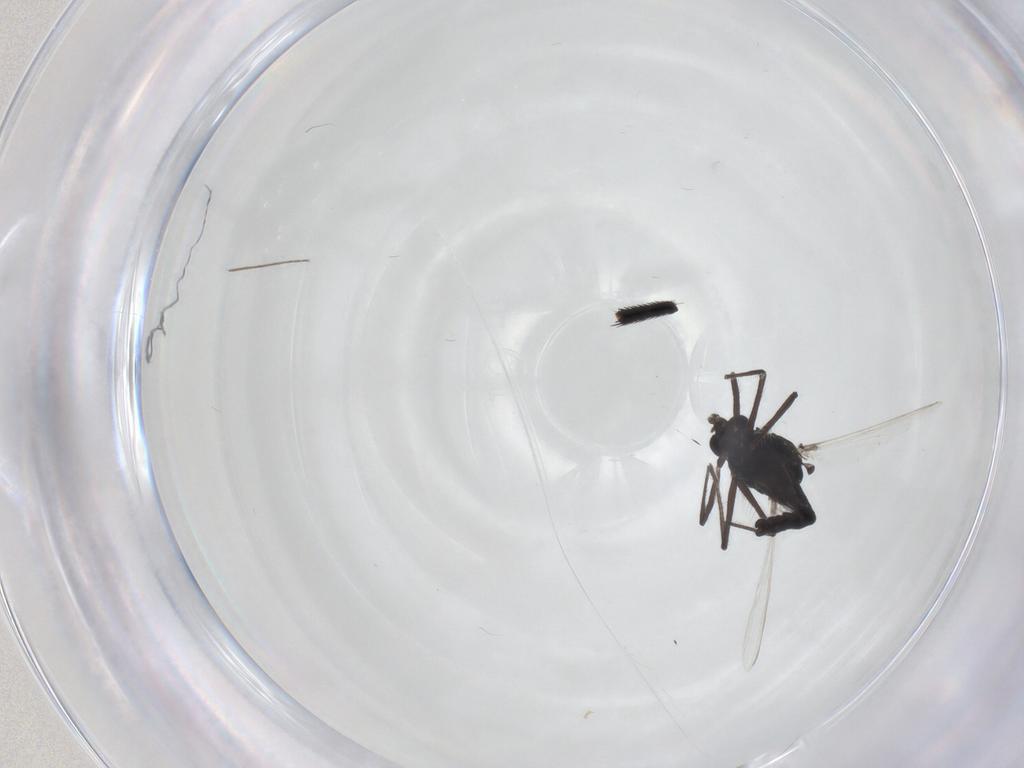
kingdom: Animalia
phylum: Arthropoda
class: Insecta
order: Diptera
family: Chironomidae
